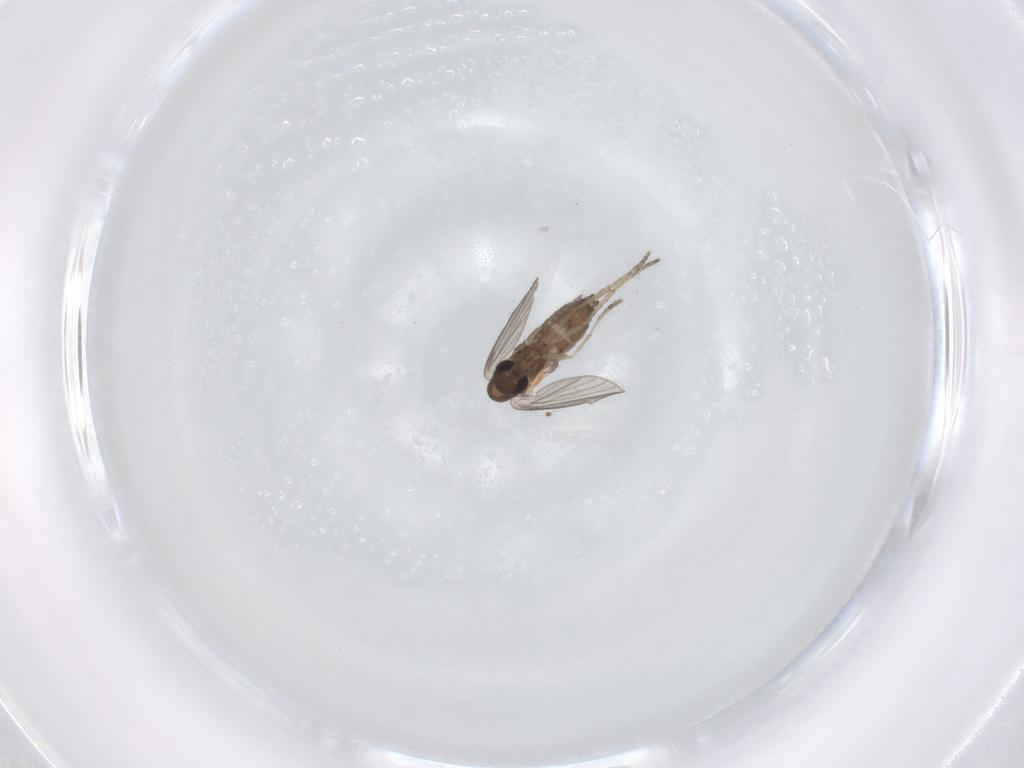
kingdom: Animalia
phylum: Arthropoda
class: Insecta
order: Diptera
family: Cecidomyiidae
